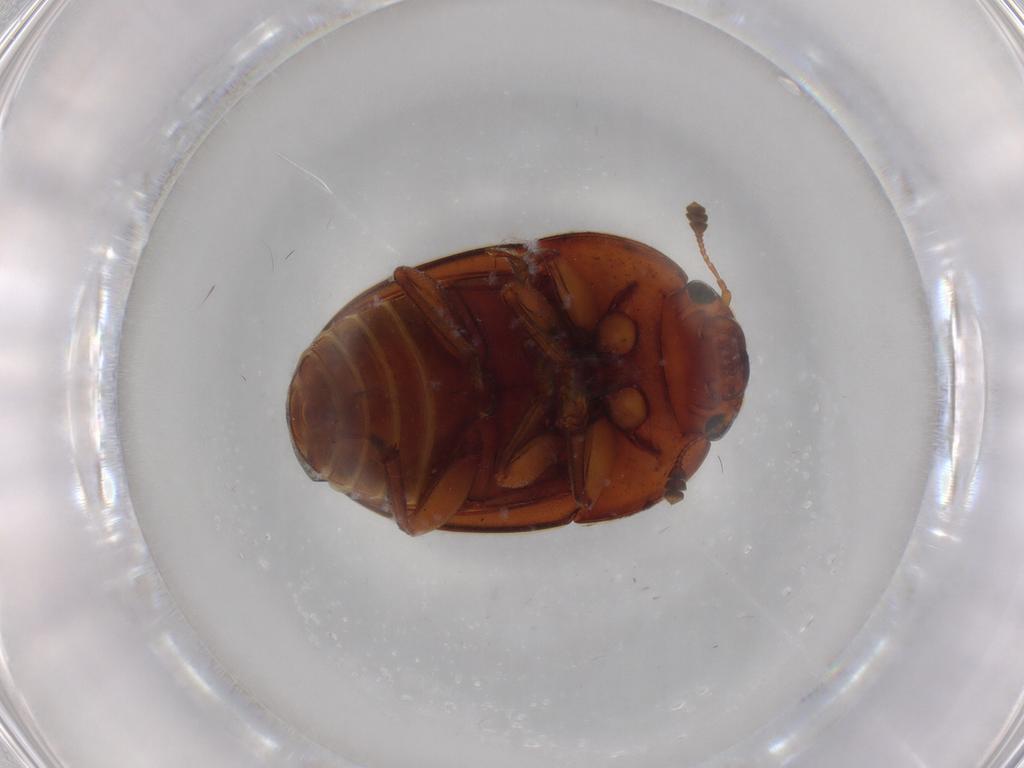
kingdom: Animalia
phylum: Arthropoda
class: Insecta
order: Coleoptera
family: Nitidulidae
